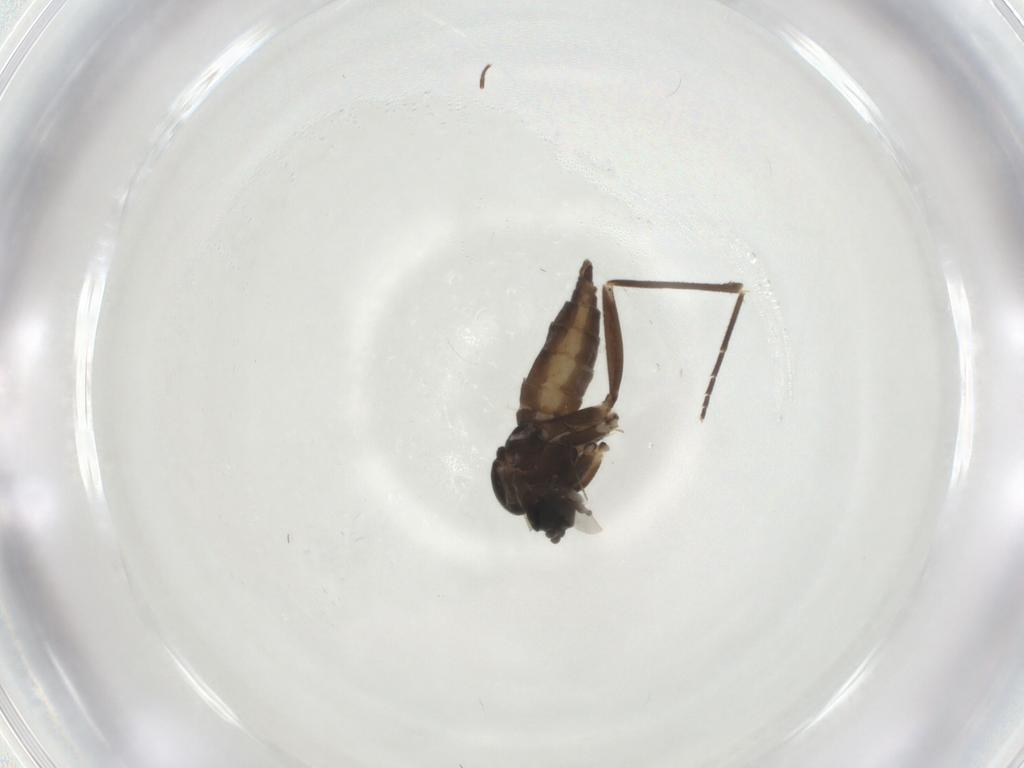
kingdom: Animalia
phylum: Arthropoda
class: Insecta
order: Diptera
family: Sciaridae
